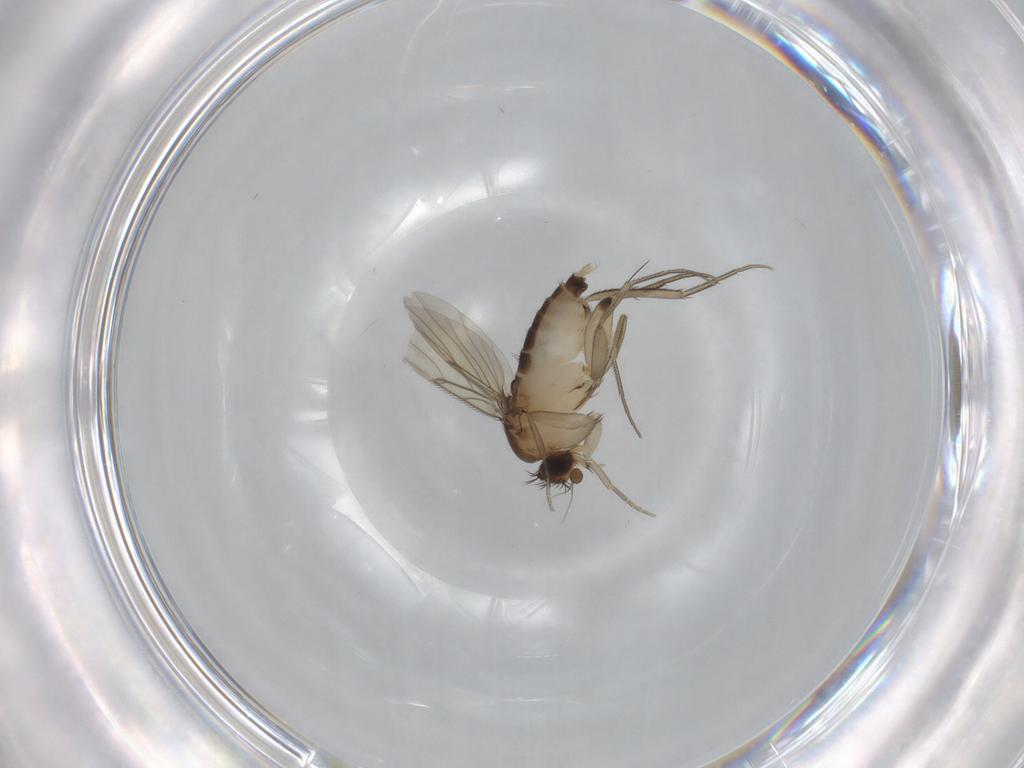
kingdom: Animalia
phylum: Arthropoda
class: Insecta
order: Diptera
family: Phoridae
